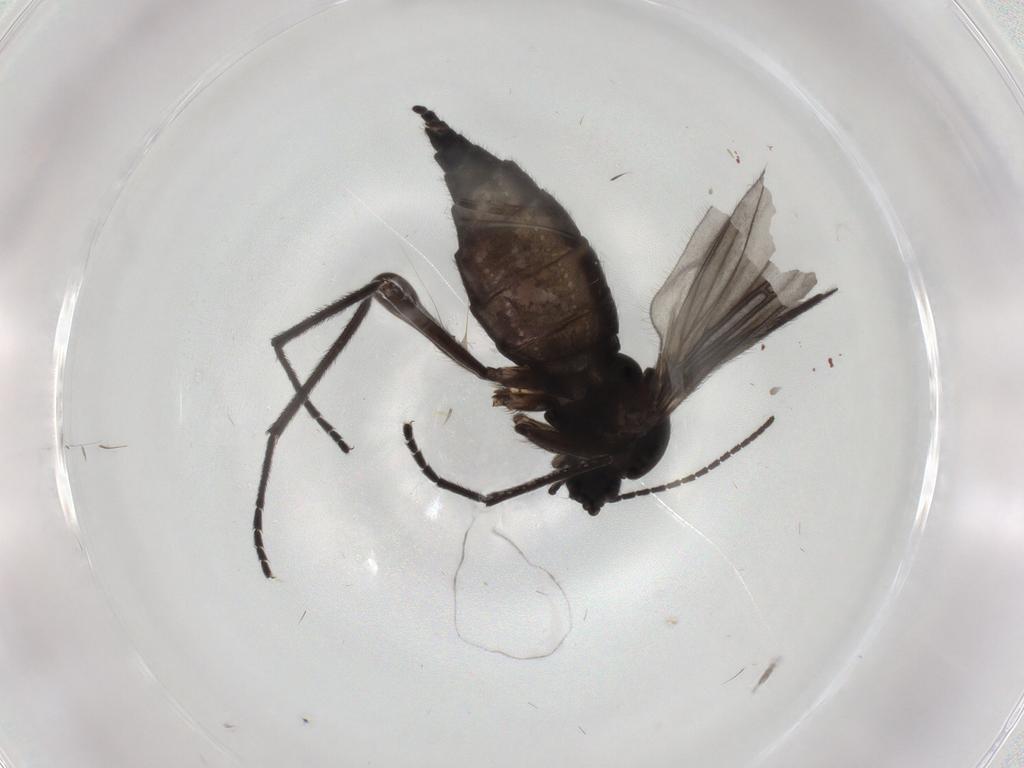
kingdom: Animalia
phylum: Arthropoda
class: Insecta
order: Diptera
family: Sciaridae
